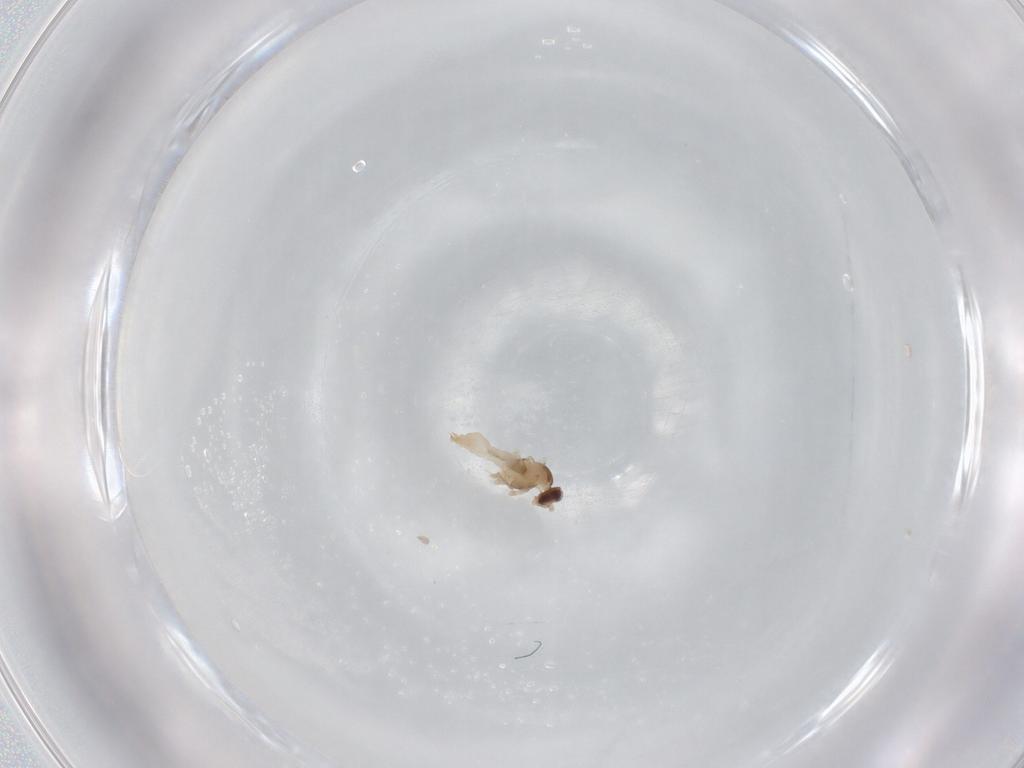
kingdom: Animalia
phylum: Arthropoda
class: Insecta
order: Diptera
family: Cecidomyiidae
